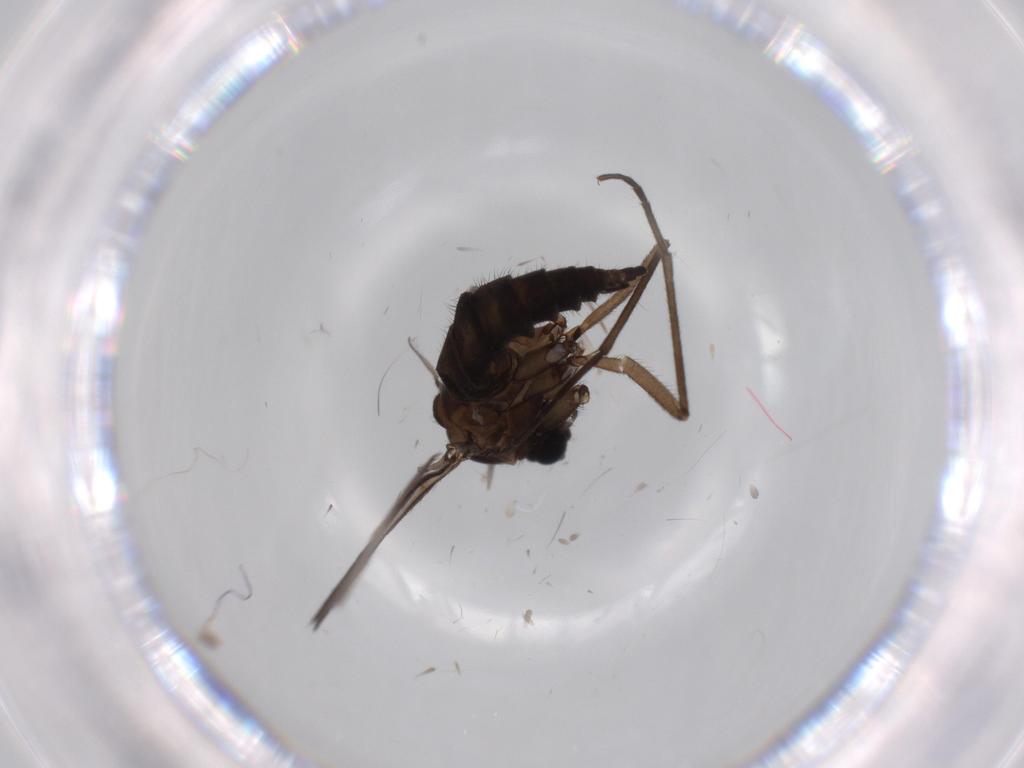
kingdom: Animalia
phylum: Arthropoda
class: Insecta
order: Diptera
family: Sciaridae
